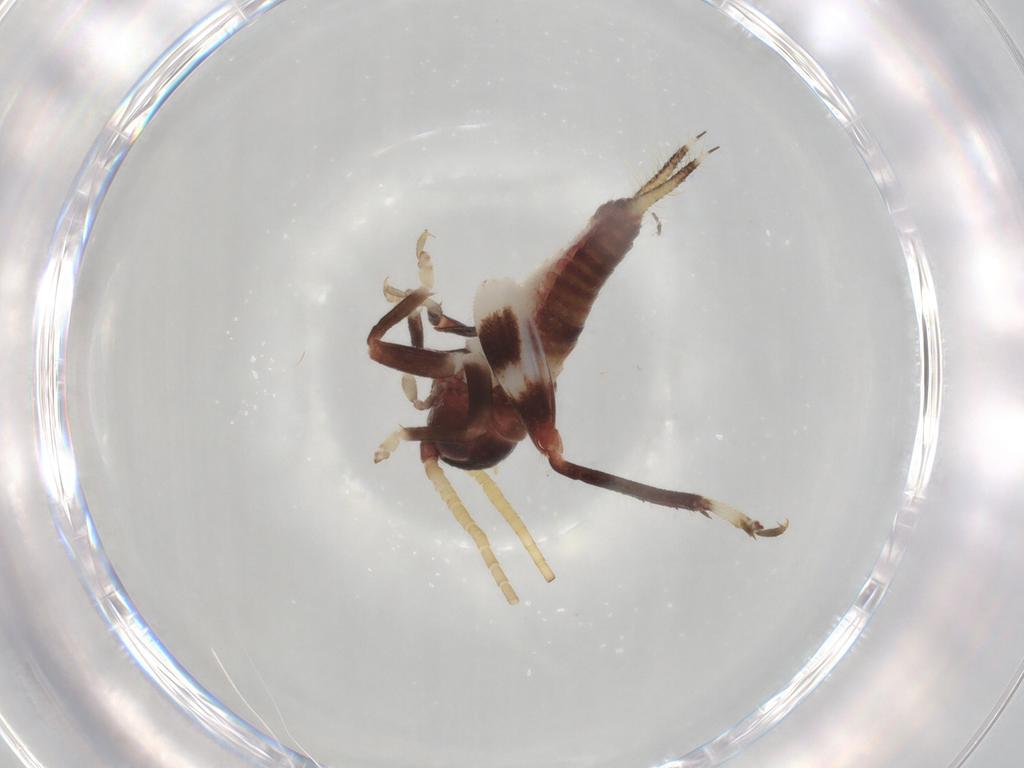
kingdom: Animalia
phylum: Arthropoda
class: Insecta
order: Orthoptera
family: Gryllidae
